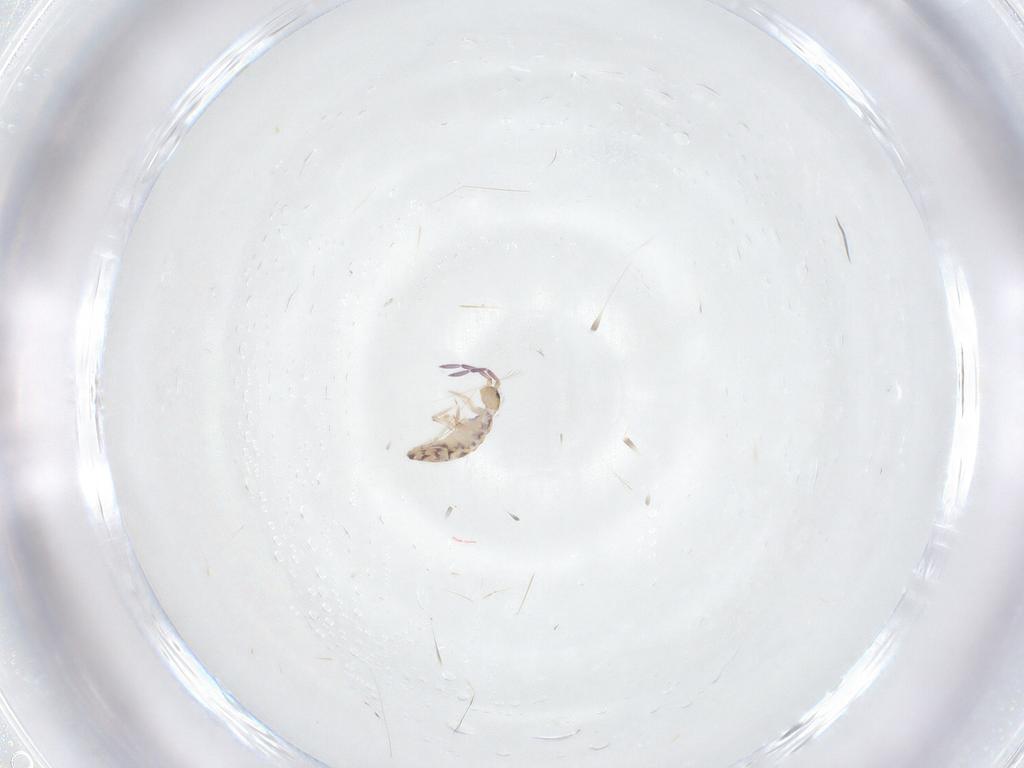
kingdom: Animalia
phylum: Arthropoda
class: Collembola
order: Entomobryomorpha
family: Entomobryidae
